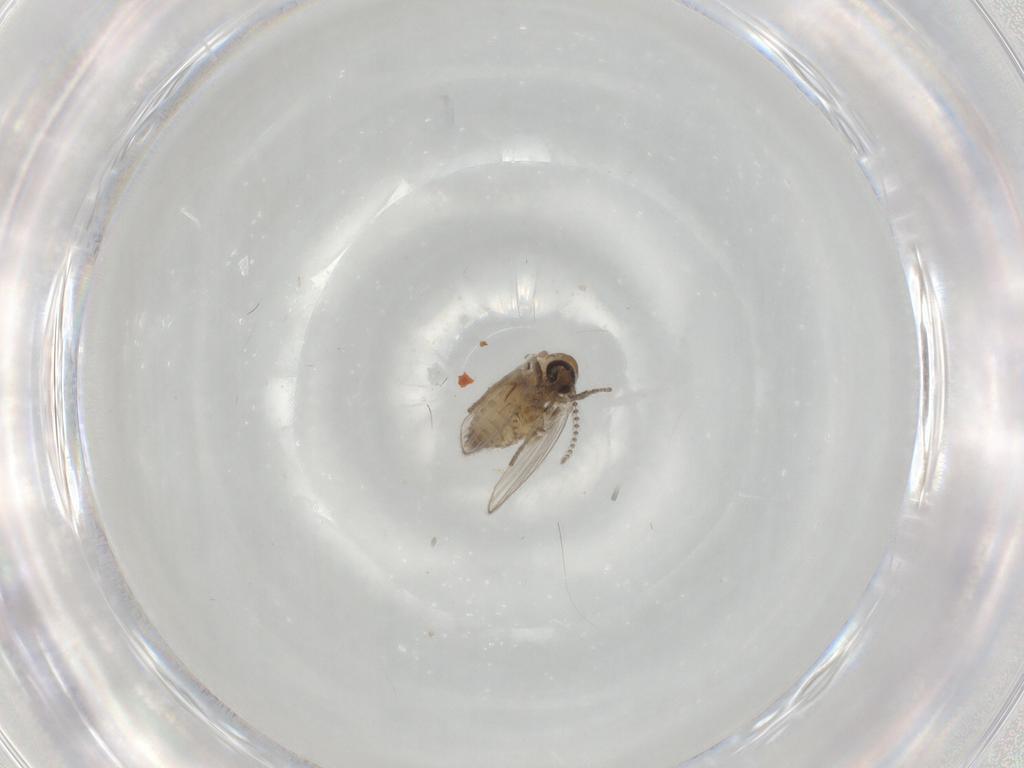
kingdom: Animalia
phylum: Arthropoda
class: Insecta
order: Diptera
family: Psychodidae
